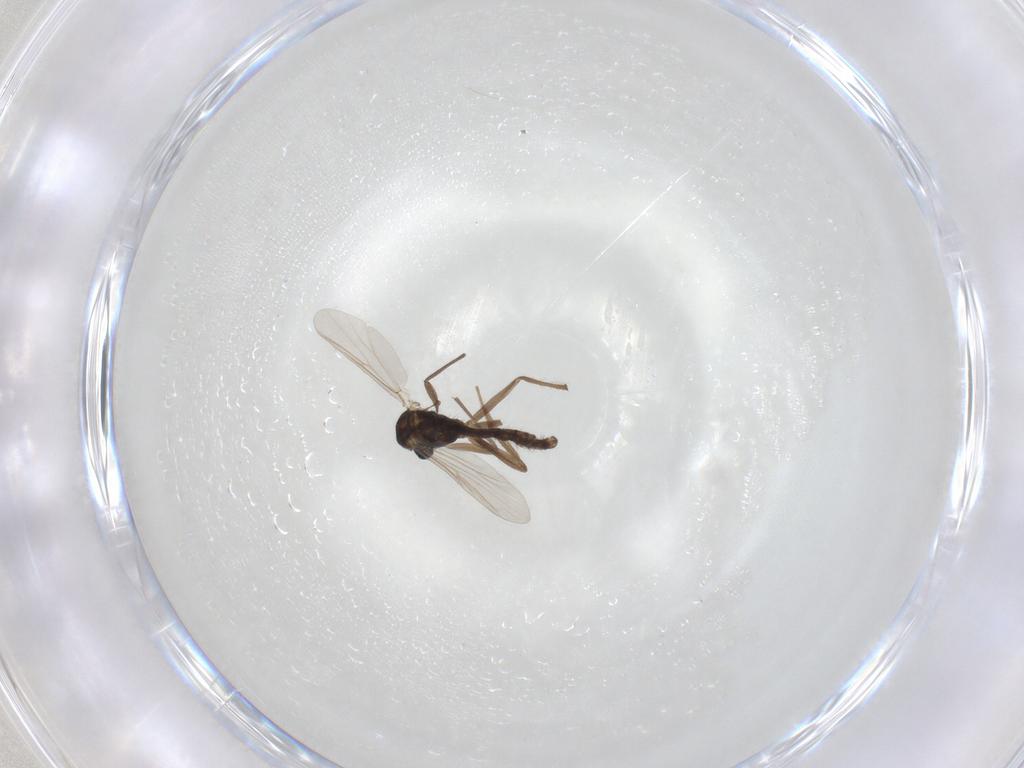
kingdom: Animalia
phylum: Arthropoda
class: Insecta
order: Diptera
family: Chironomidae
